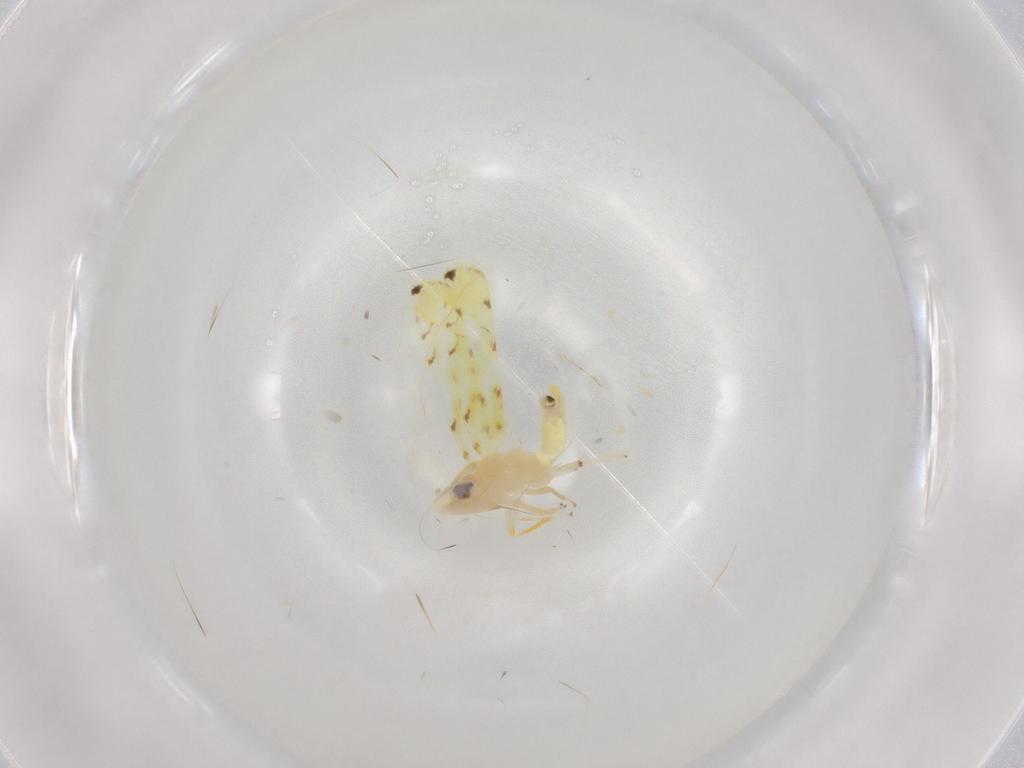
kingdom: Animalia
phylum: Arthropoda
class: Insecta
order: Hemiptera
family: Cicadellidae
